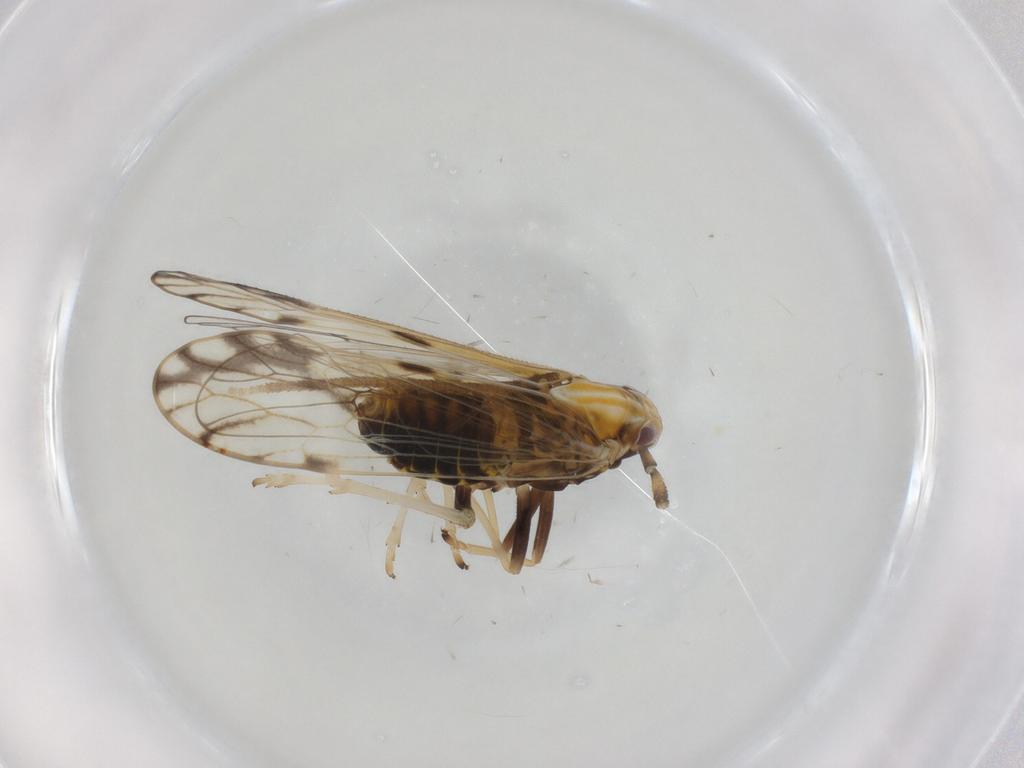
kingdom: Animalia
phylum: Arthropoda
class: Insecta
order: Hemiptera
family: Delphacidae
